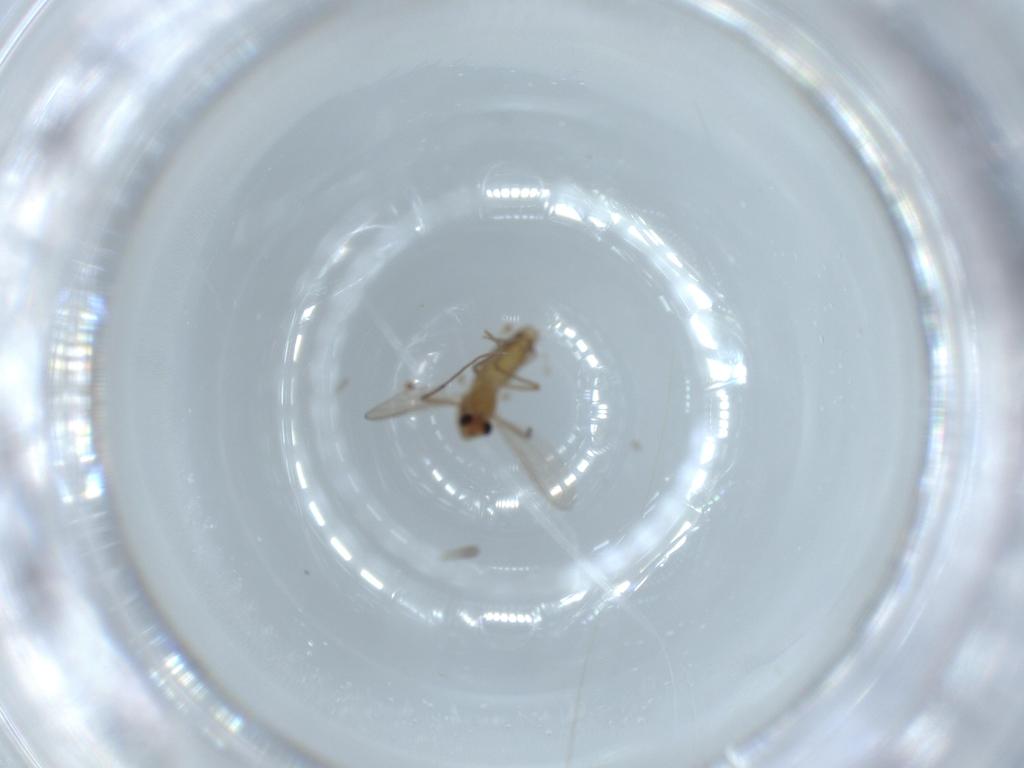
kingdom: Animalia
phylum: Arthropoda
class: Insecta
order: Diptera
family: Chironomidae
